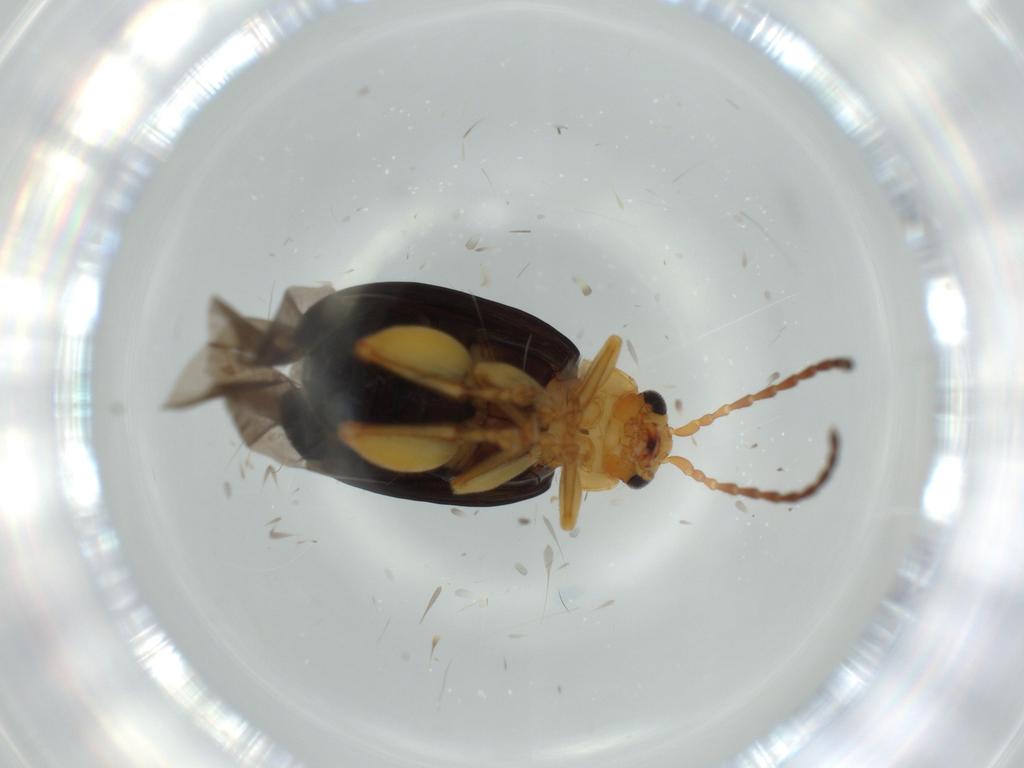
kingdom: Animalia
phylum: Arthropoda
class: Insecta
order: Coleoptera
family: Chrysomelidae
